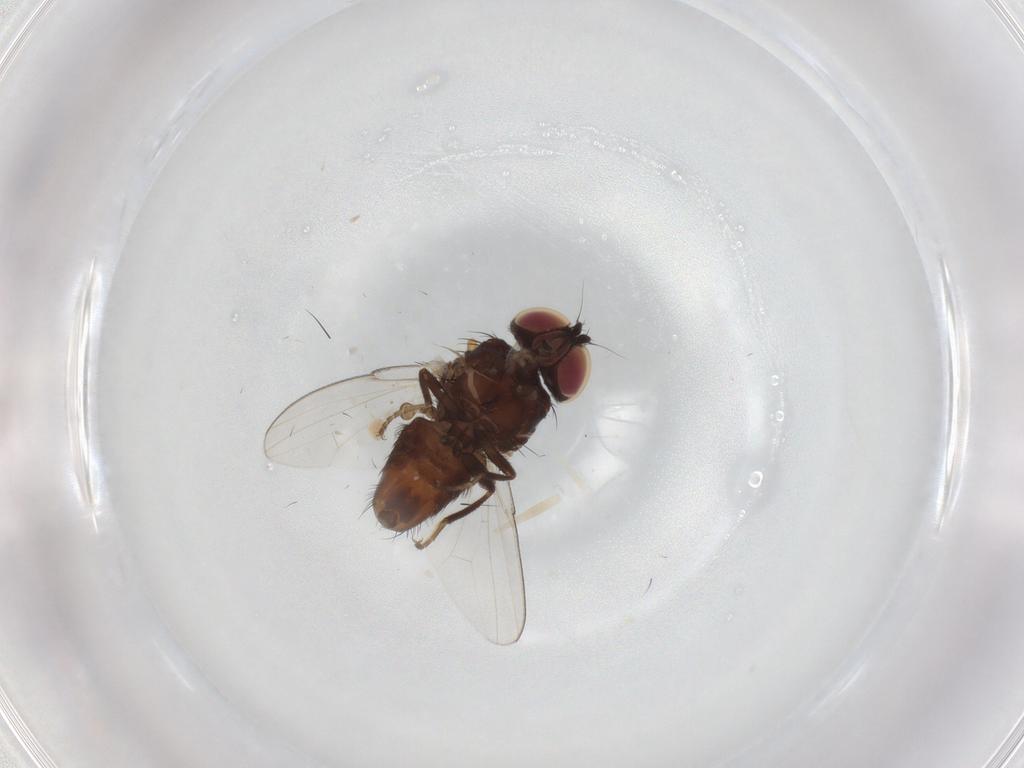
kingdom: Animalia
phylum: Arthropoda
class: Insecta
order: Diptera
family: Milichiidae
